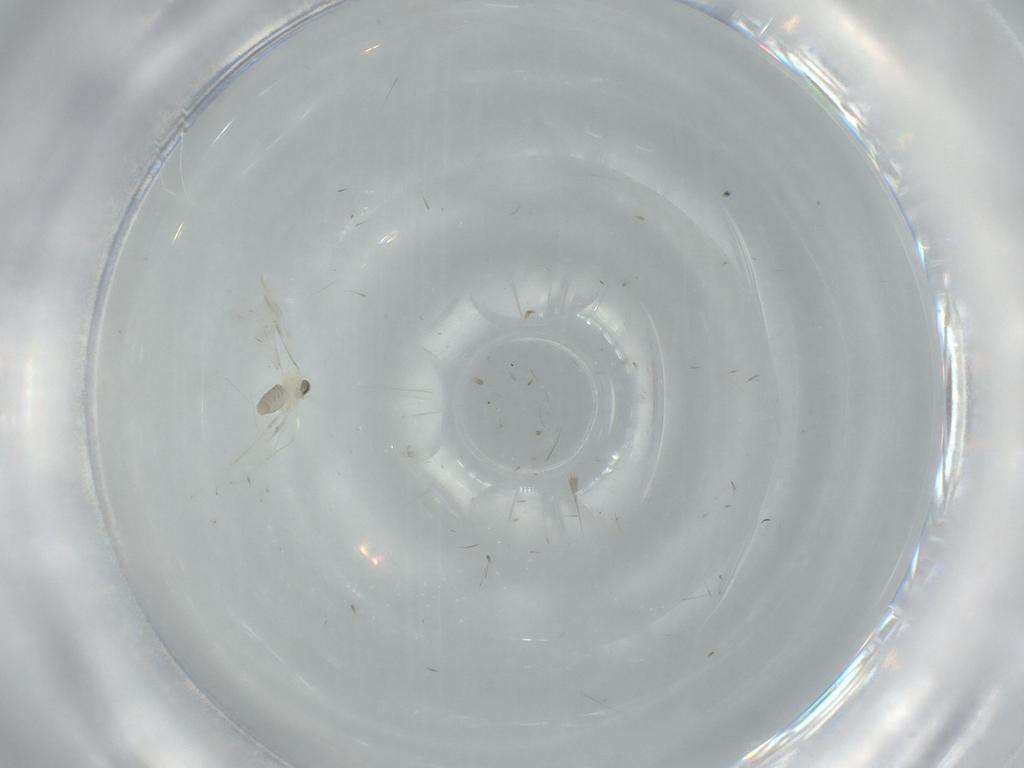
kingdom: Animalia
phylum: Arthropoda
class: Insecta
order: Diptera
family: Cecidomyiidae
